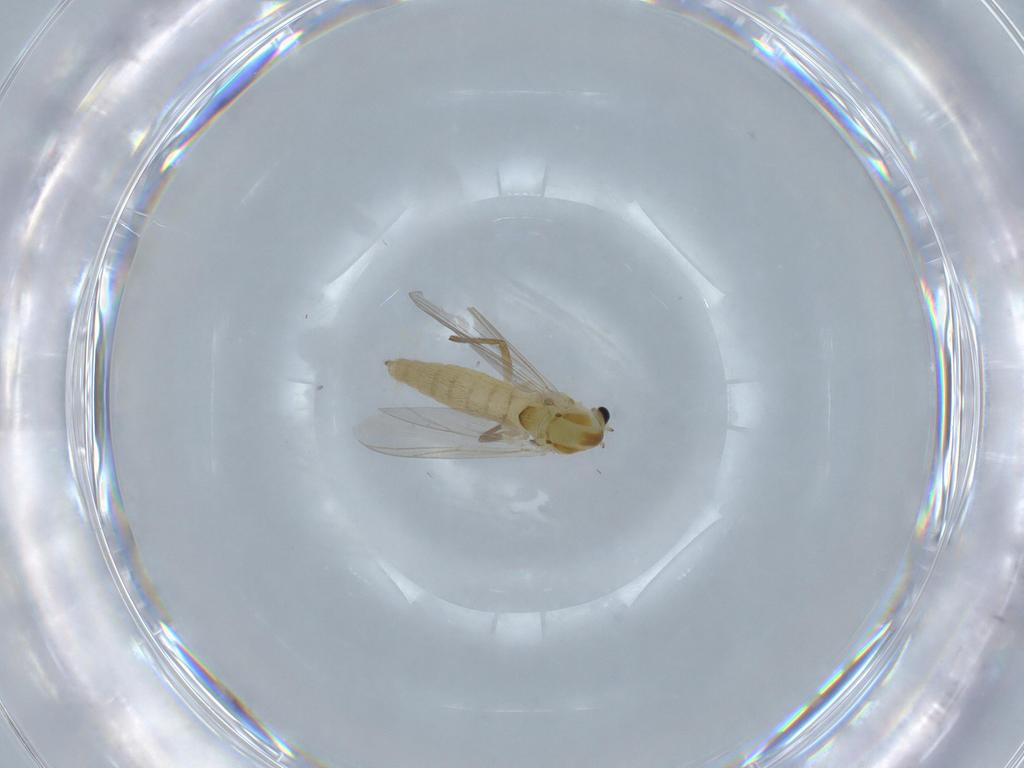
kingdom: Animalia
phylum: Arthropoda
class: Insecta
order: Diptera
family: Chironomidae
